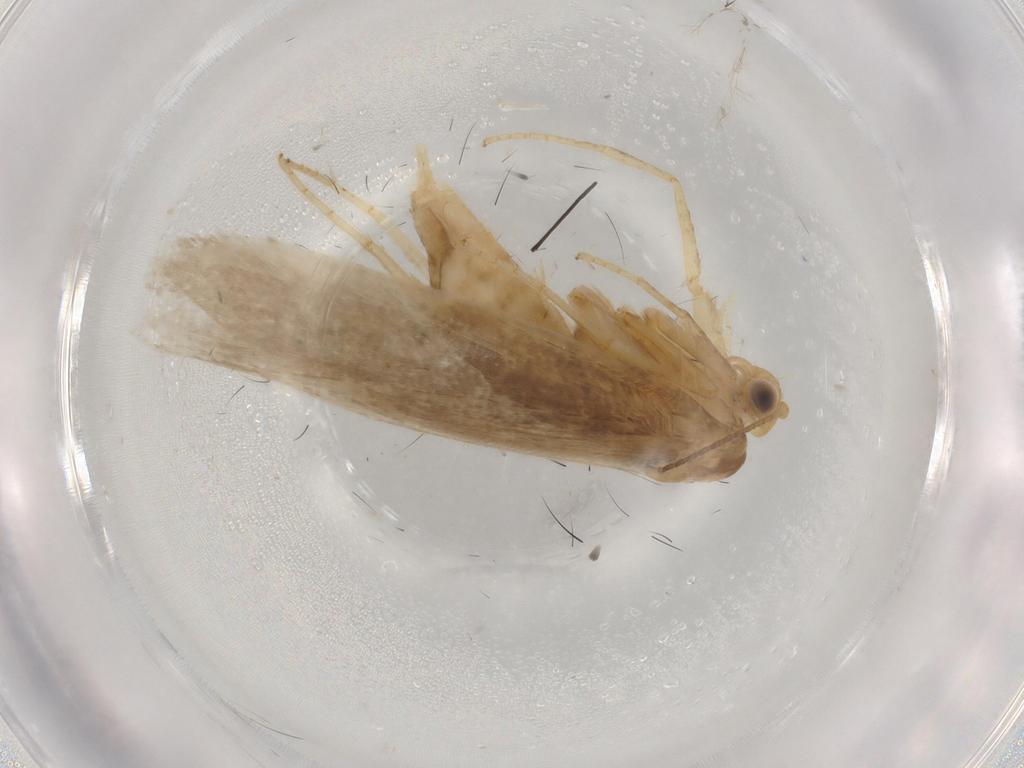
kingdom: Animalia
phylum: Arthropoda
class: Insecta
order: Lepidoptera
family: Argyresthiidae
